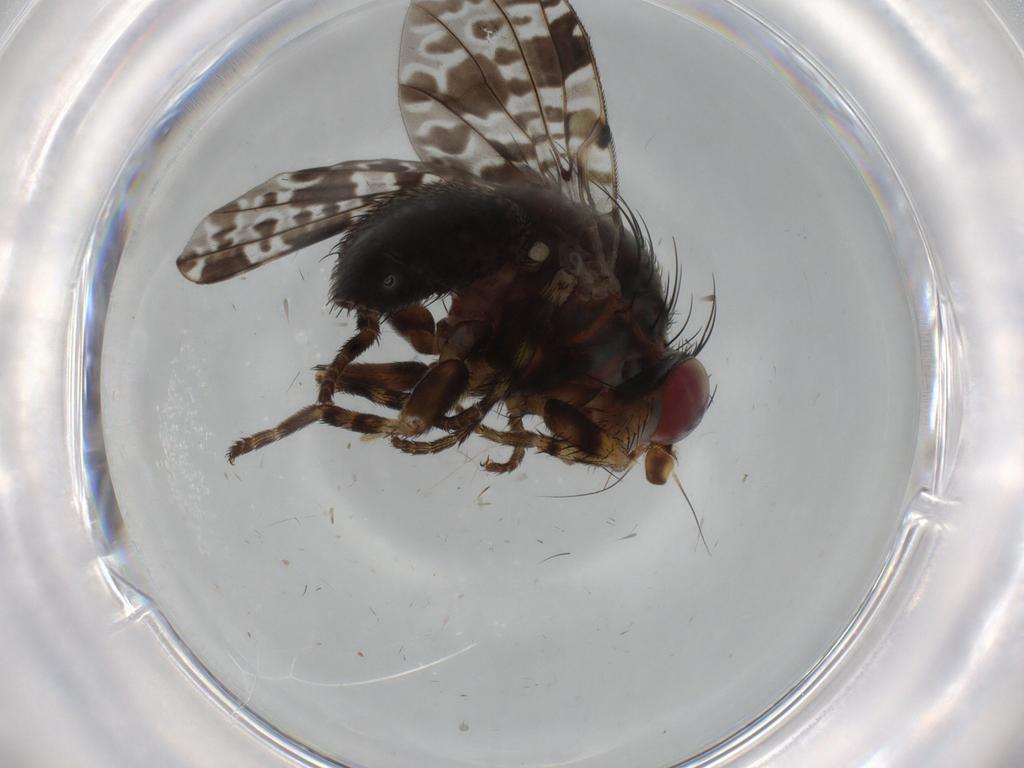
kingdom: Animalia
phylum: Arthropoda
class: Insecta
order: Diptera
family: Odiniidae
